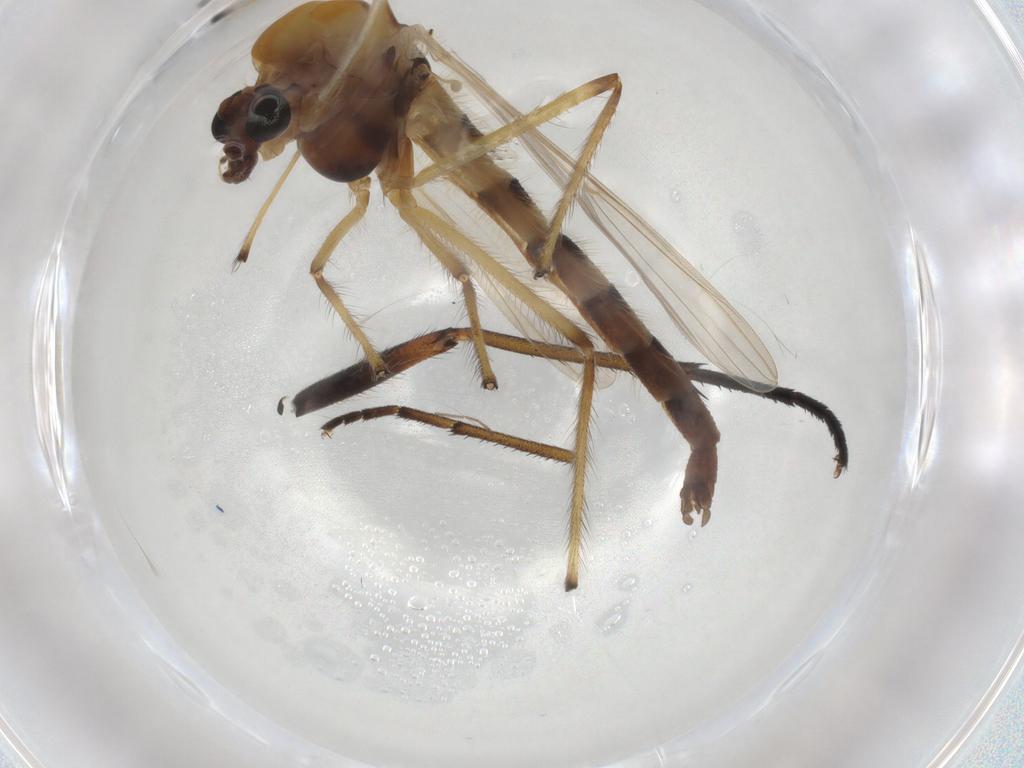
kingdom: Animalia
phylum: Arthropoda
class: Insecta
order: Diptera
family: Chironomidae
